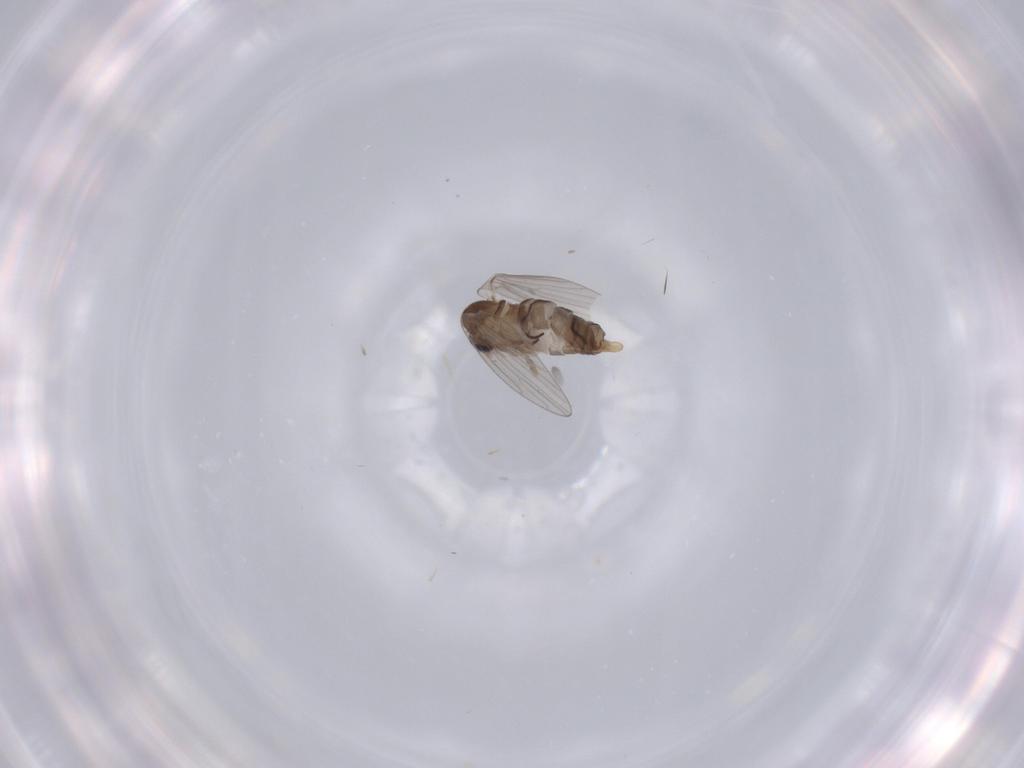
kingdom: Animalia
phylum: Arthropoda
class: Insecta
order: Diptera
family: Psychodidae
